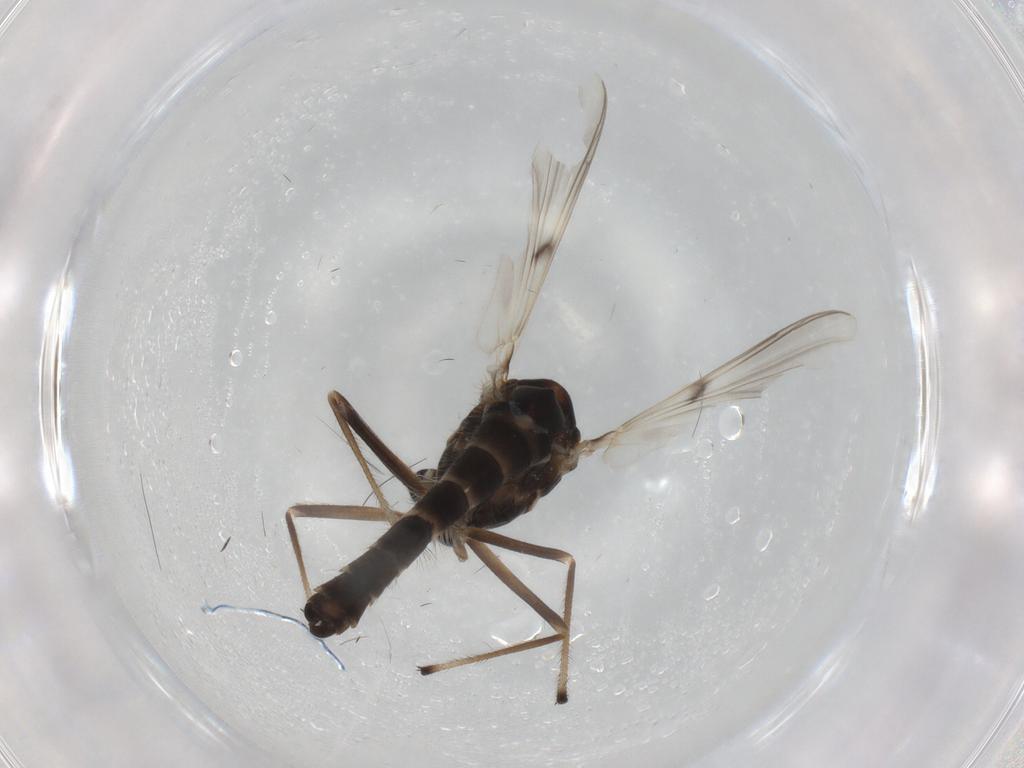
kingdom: Animalia
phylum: Arthropoda
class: Insecta
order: Diptera
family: Chironomidae
